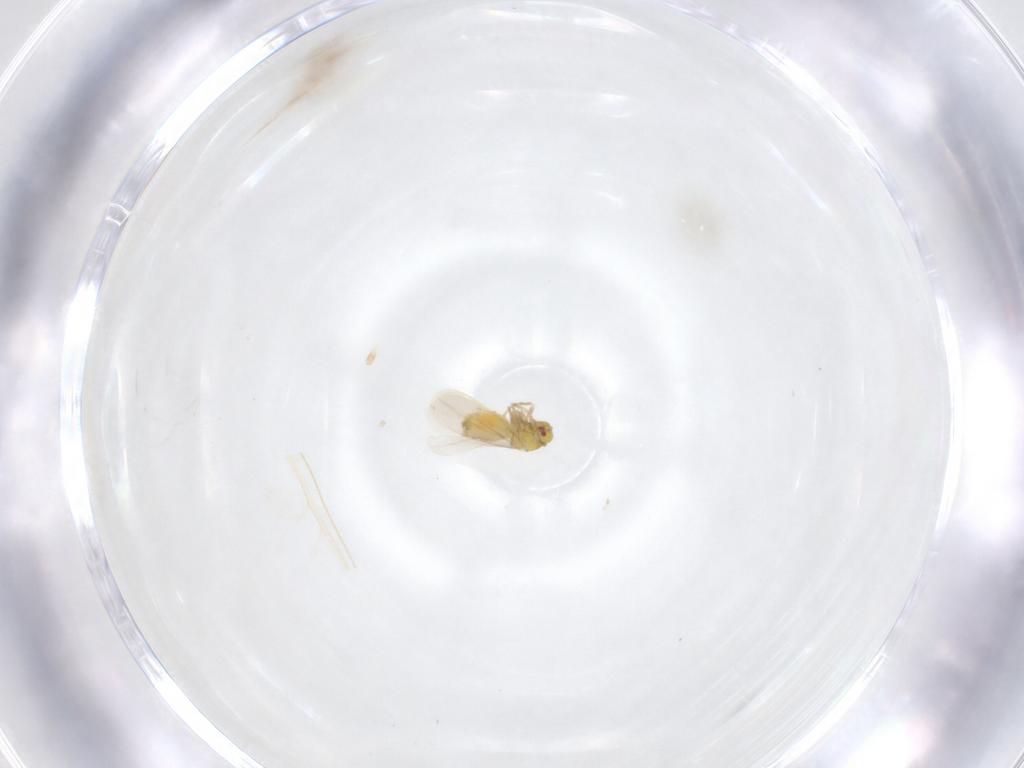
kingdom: Animalia
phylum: Arthropoda
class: Insecta
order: Hemiptera
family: Aleyrodidae
